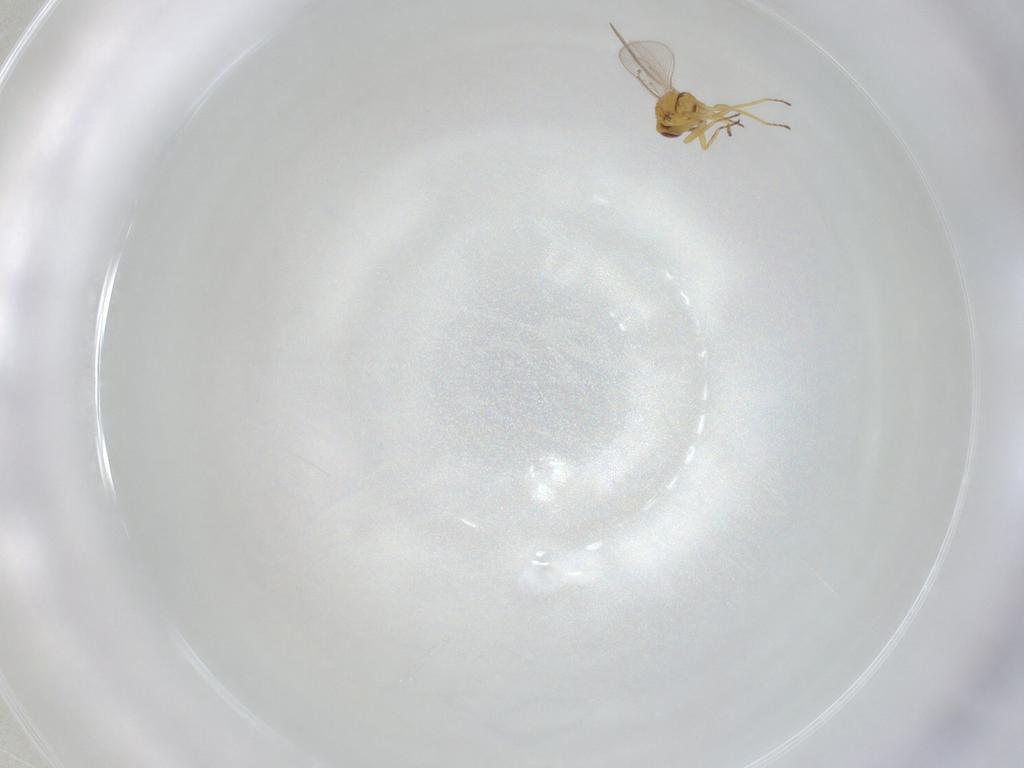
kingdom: Animalia
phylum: Arthropoda
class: Insecta
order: Hymenoptera
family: Eulophidae
